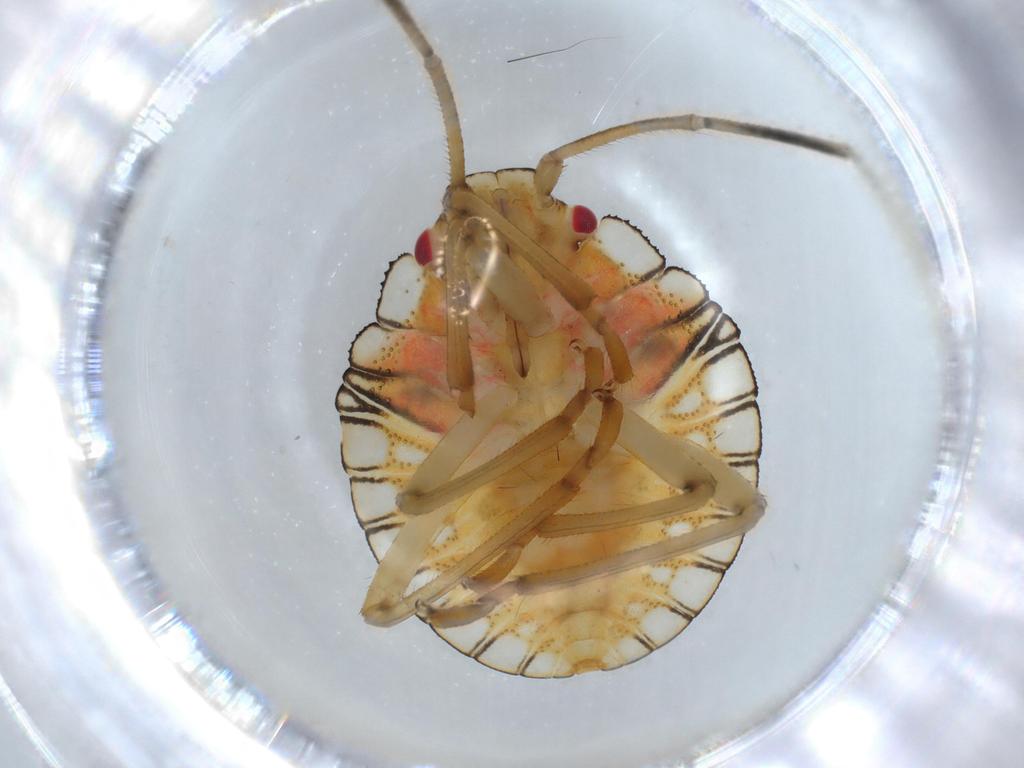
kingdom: Animalia
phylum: Arthropoda
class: Insecta
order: Hemiptera
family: Pentatomidae
